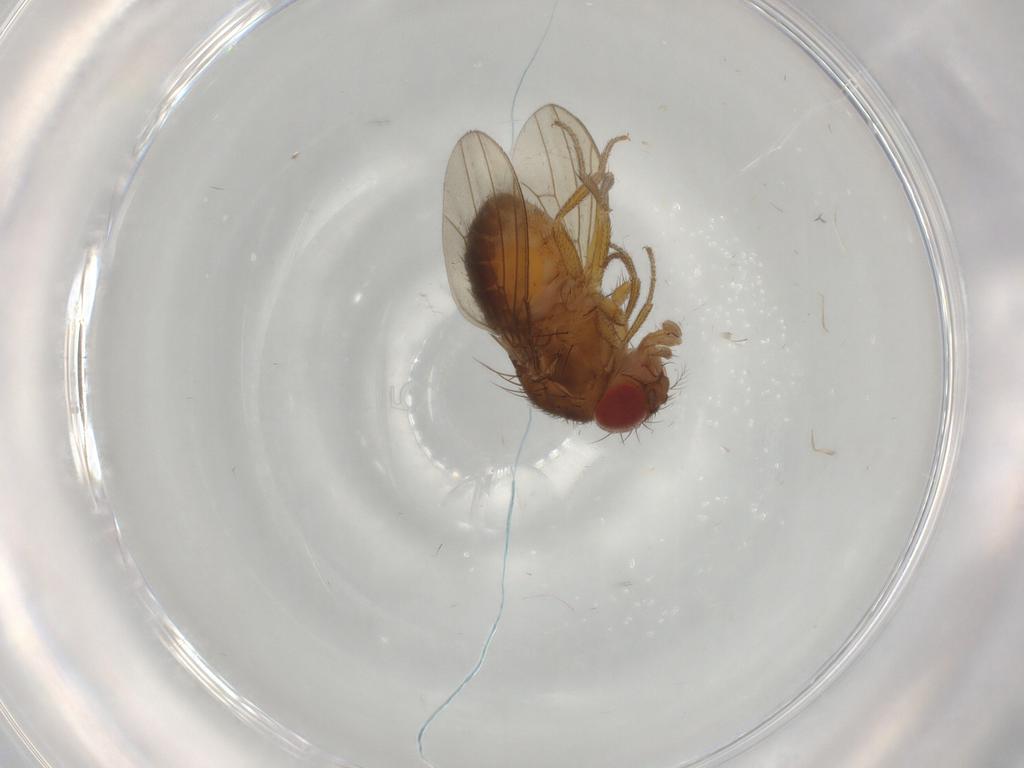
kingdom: Animalia
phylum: Arthropoda
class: Insecta
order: Diptera
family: Drosophilidae
